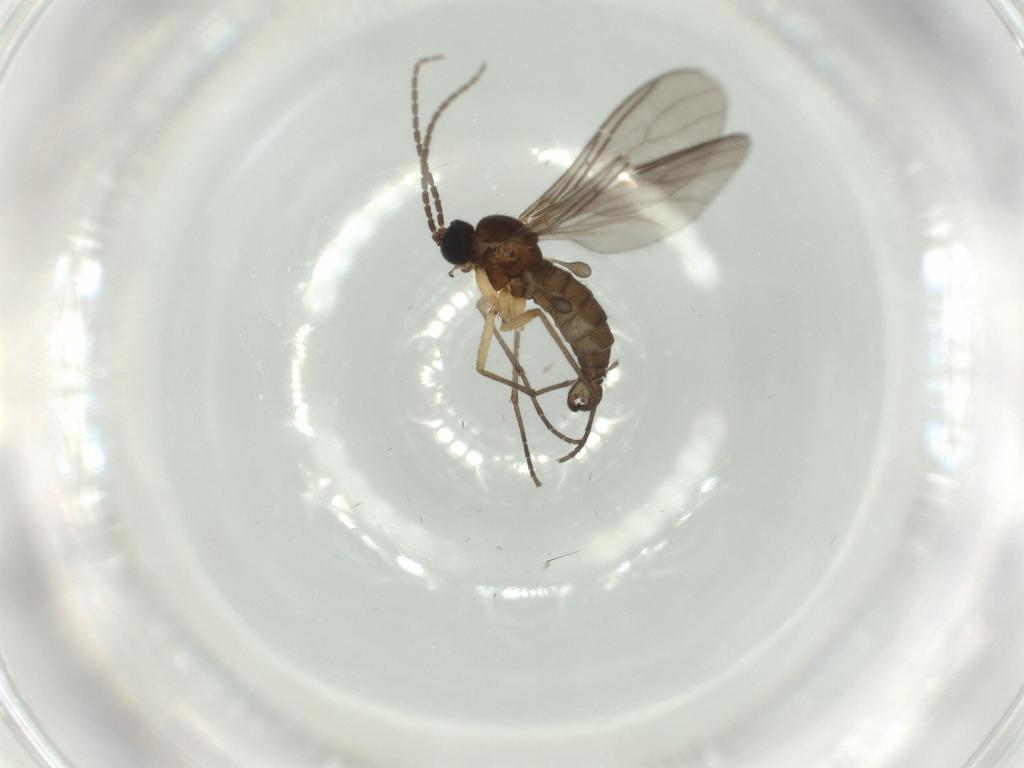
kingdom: Animalia
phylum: Arthropoda
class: Insecta
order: Diptera
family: Sciaridae
